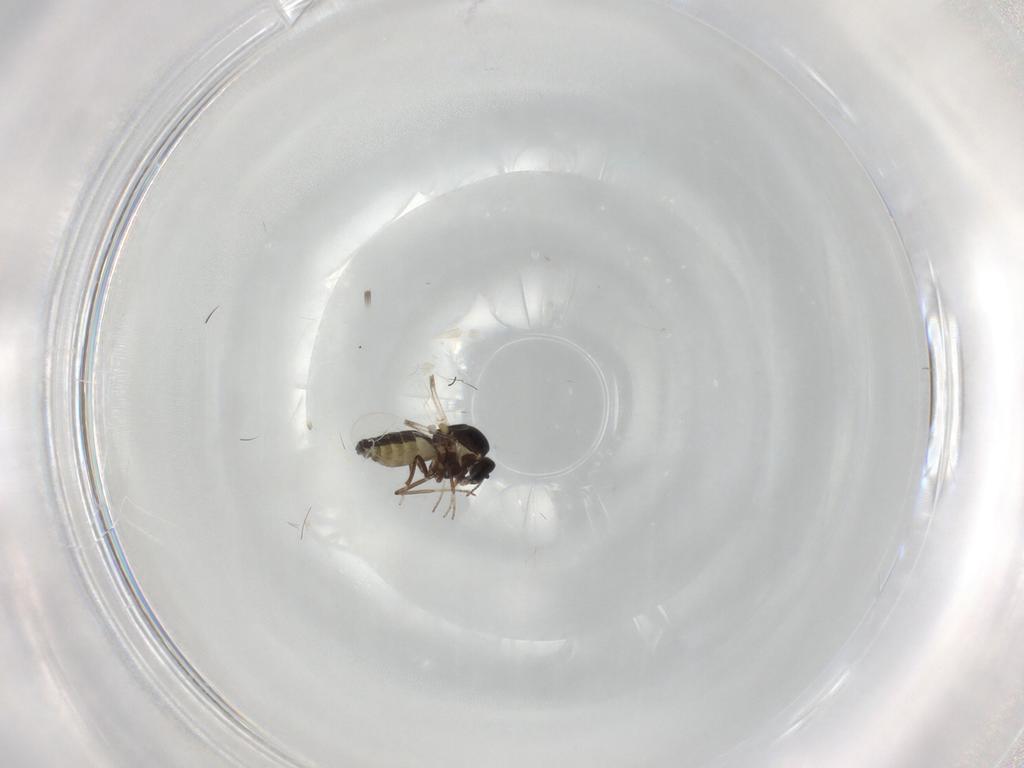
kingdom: Animalia
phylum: Arthropoda
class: Insecta
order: Diptera
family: Ceratopogonidae
